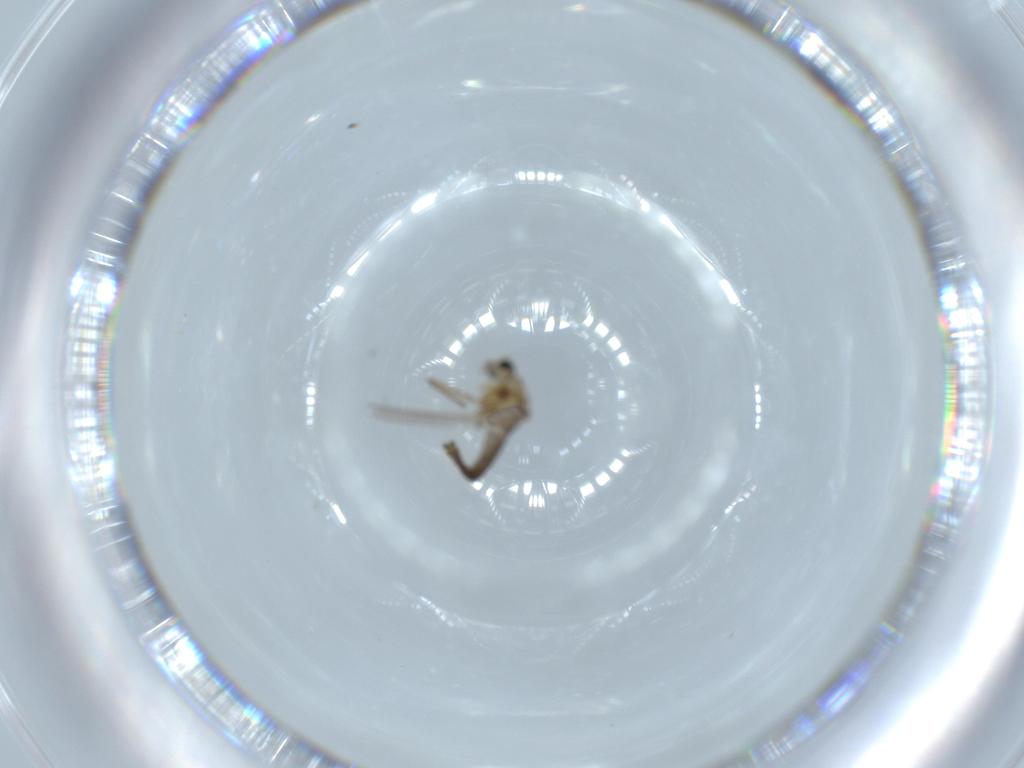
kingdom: Animalia
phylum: Arthropoda
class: Insecta
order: Diptera
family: Chironomidae
